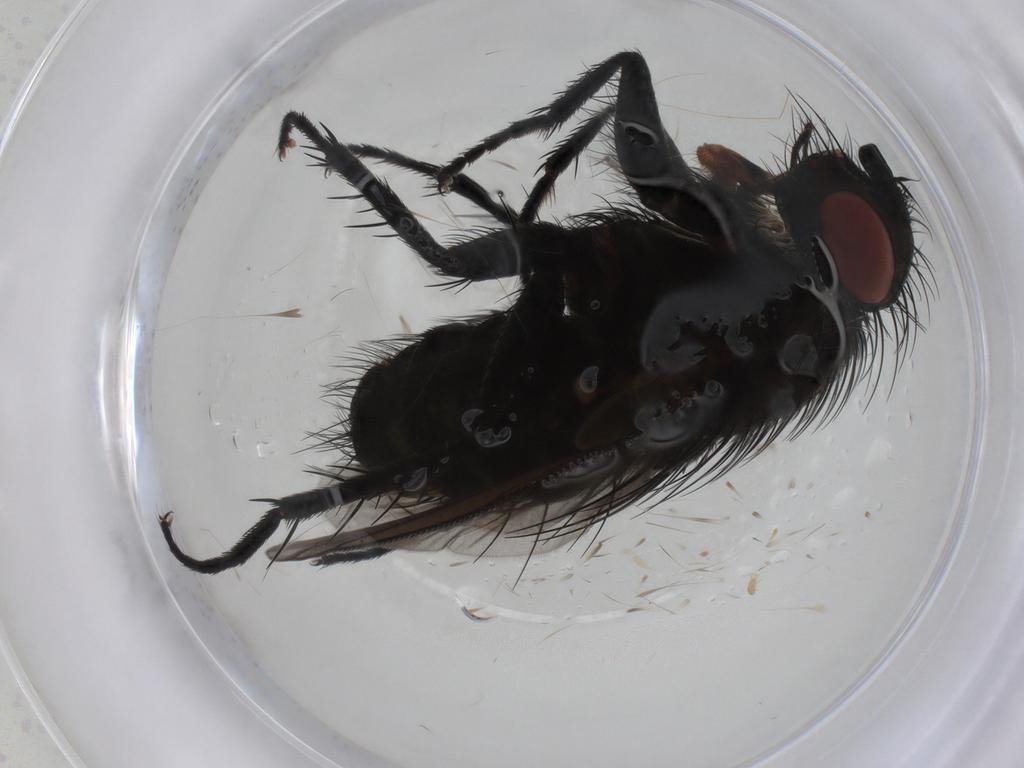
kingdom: Animalia
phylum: Arthropoda
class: Insecta
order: Diptera
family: Tachinidae
